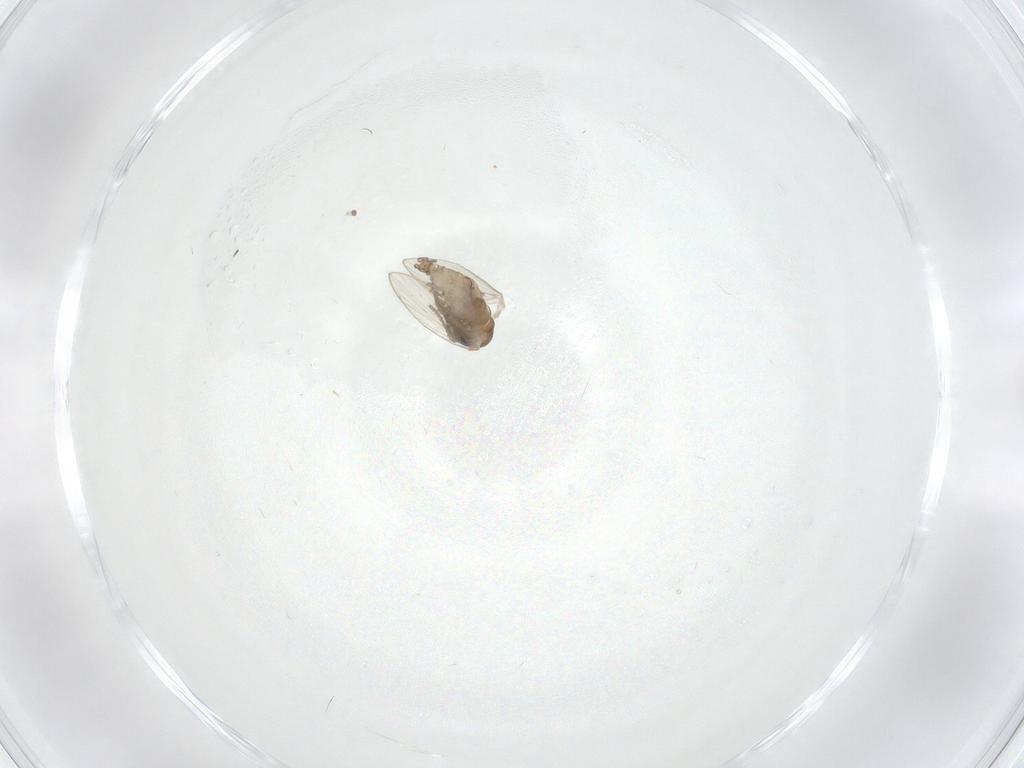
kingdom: Animalia
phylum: Arthropoda
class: Insecta
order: Diptera
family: Psychodidae
